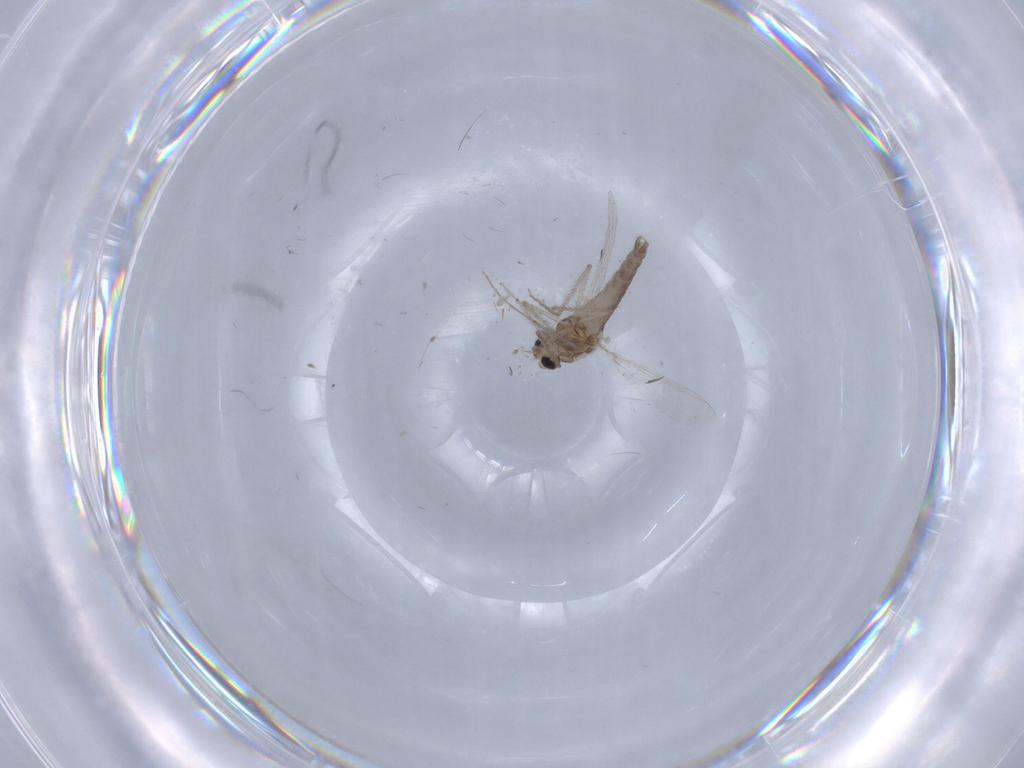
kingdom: Animalia
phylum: Arthropoda
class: Insecta
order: Diptera
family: Chironomidae
